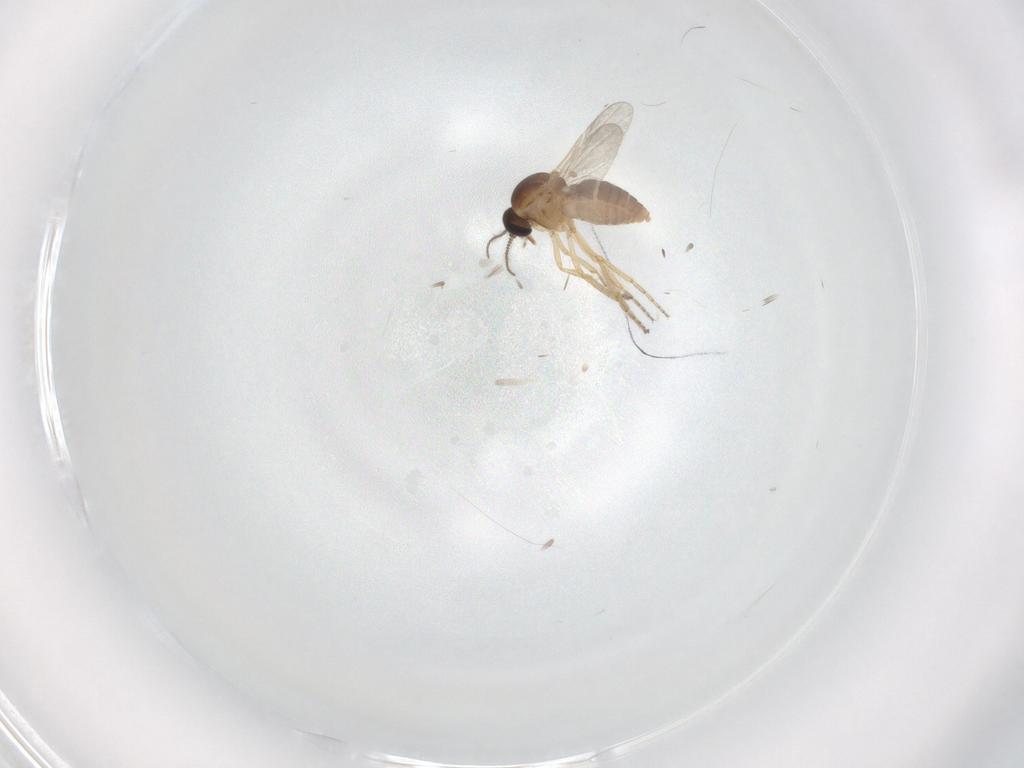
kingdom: Animalia
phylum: Arthropoda
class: Insecta
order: Diptera
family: Ceratopogonidae
